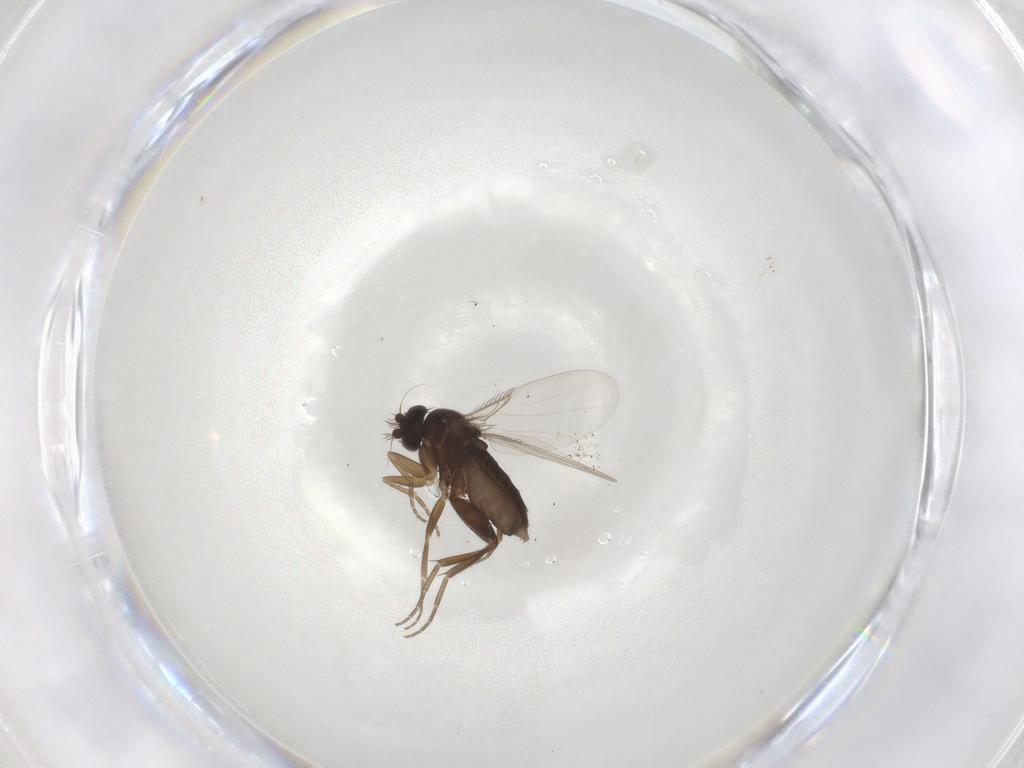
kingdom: Animalia
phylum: Arthropoda
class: Insecta
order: Diptera
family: Phoridae
